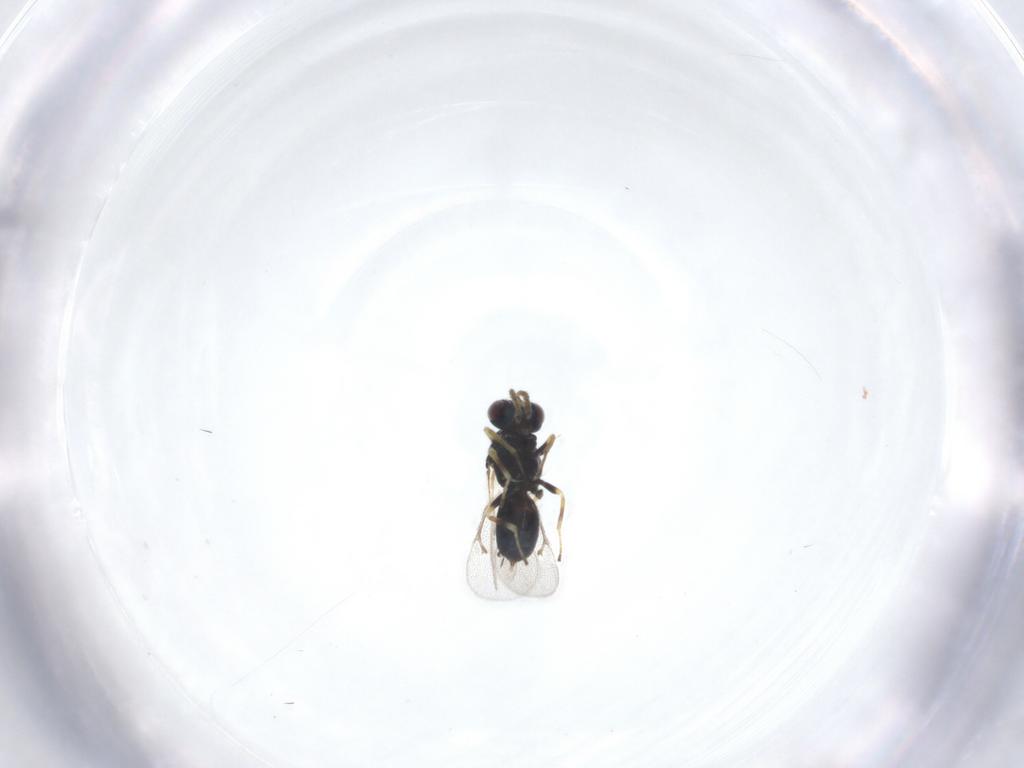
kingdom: Animalia
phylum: Arthropoda
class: Insecta
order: Hymenoptera
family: Eulophidae
